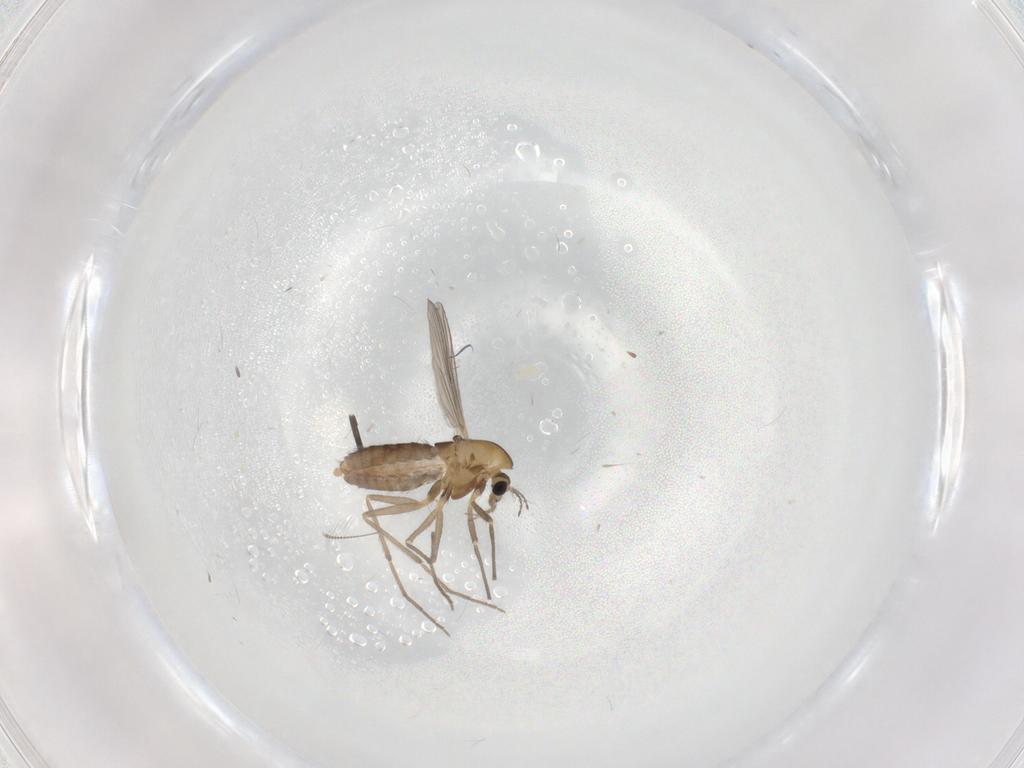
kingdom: Animalia
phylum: Arthropoda
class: Insecta
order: Diptera
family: Chironomidae
